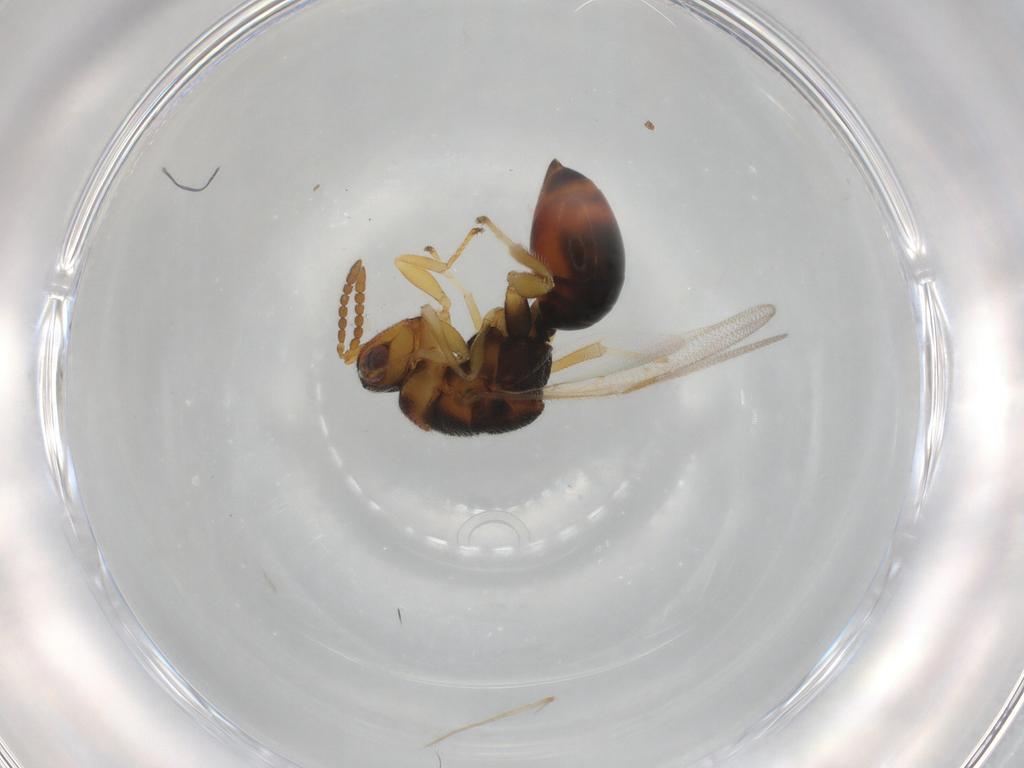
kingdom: Animalia
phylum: Arthropoda
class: Insecta
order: Hymenoptera
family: Eurytomidae
